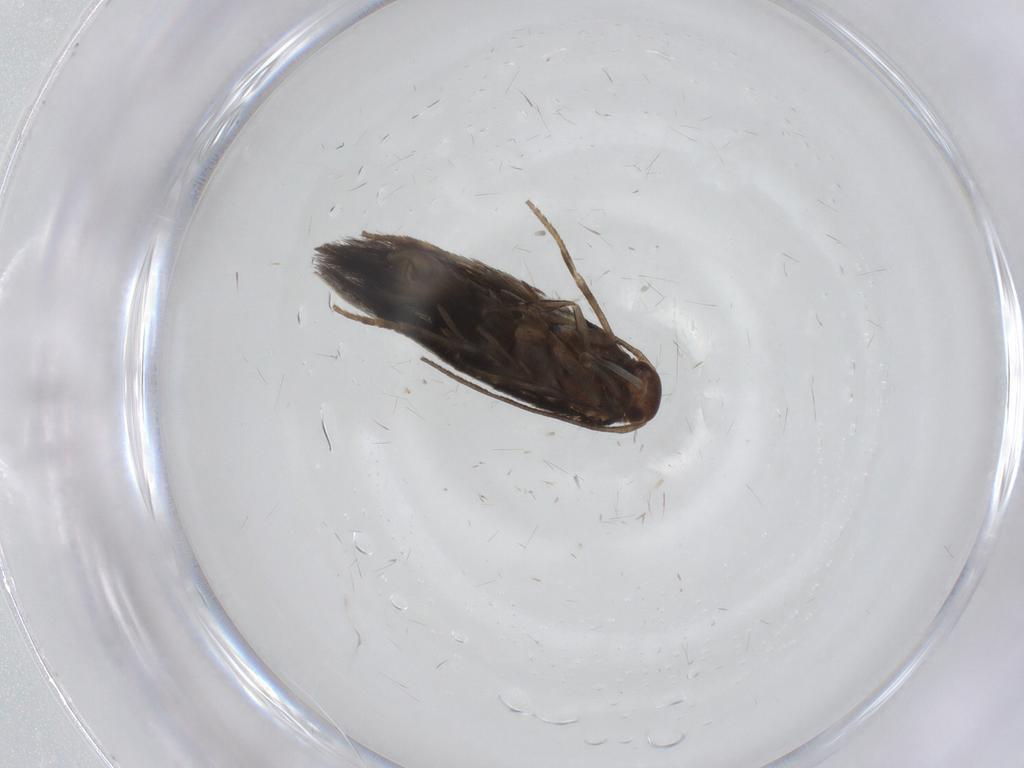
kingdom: Animalia
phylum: Arthropoda
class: Insecta
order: Lepidoptera
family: Elachistidae
